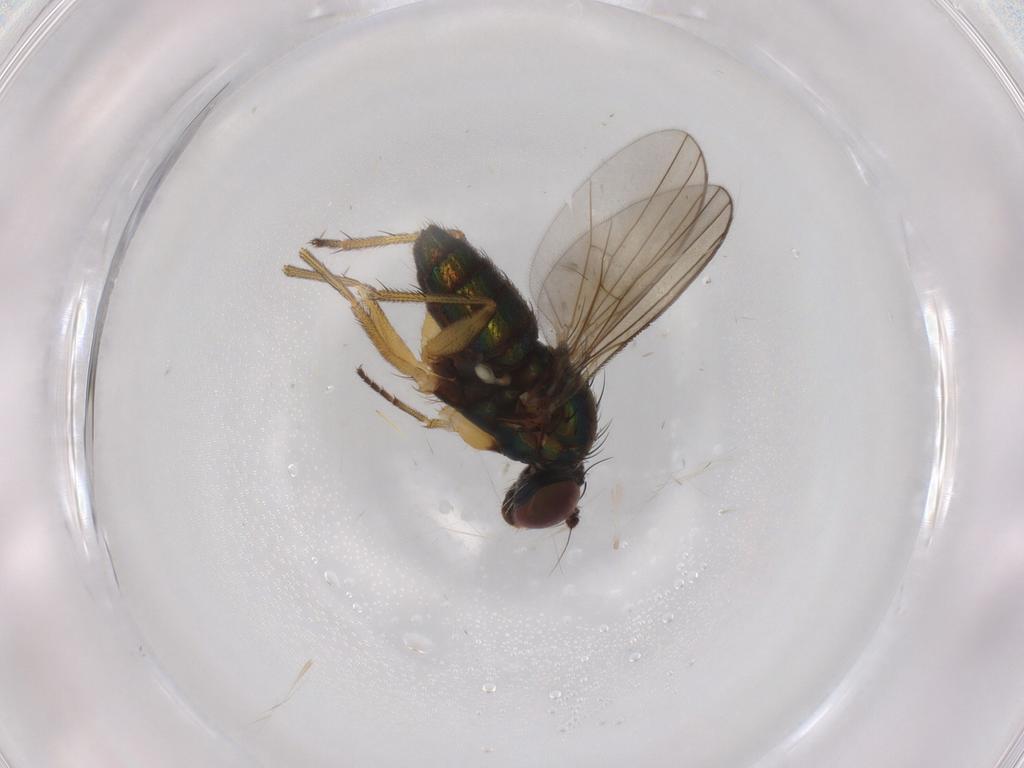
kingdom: Animalia
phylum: Arthropoda
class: Insecta
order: Diptera
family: Dolichopodidae
